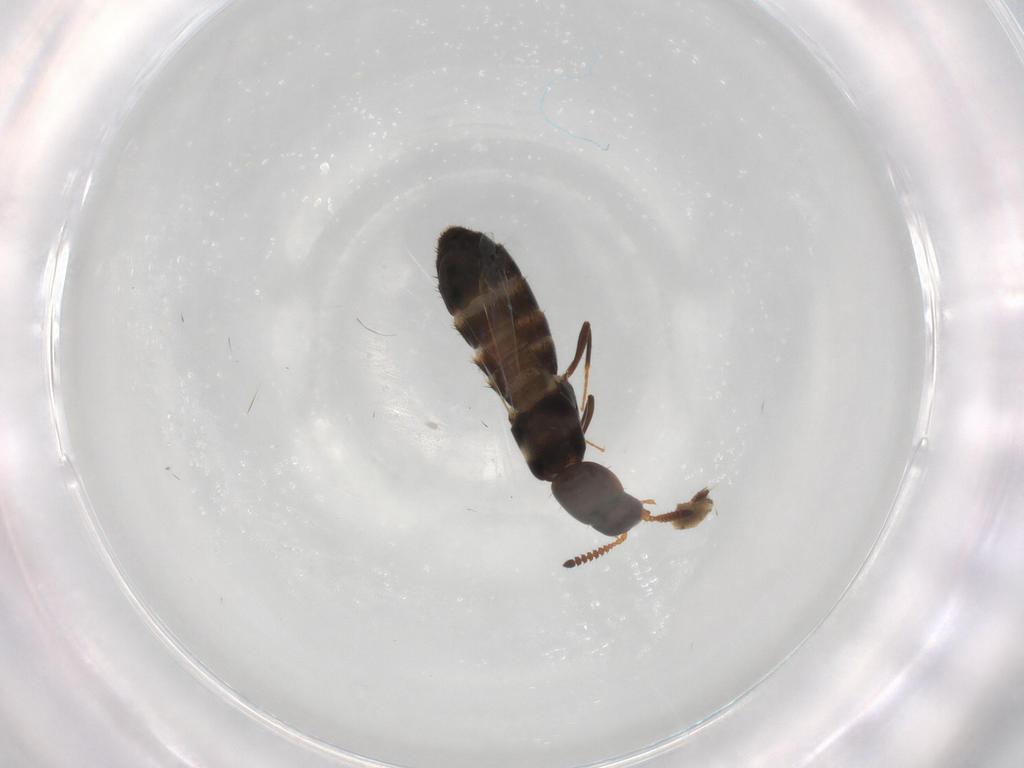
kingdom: Animalia
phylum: Arthropoda
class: Insecta
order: Coleoptera
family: Staphylinidae
